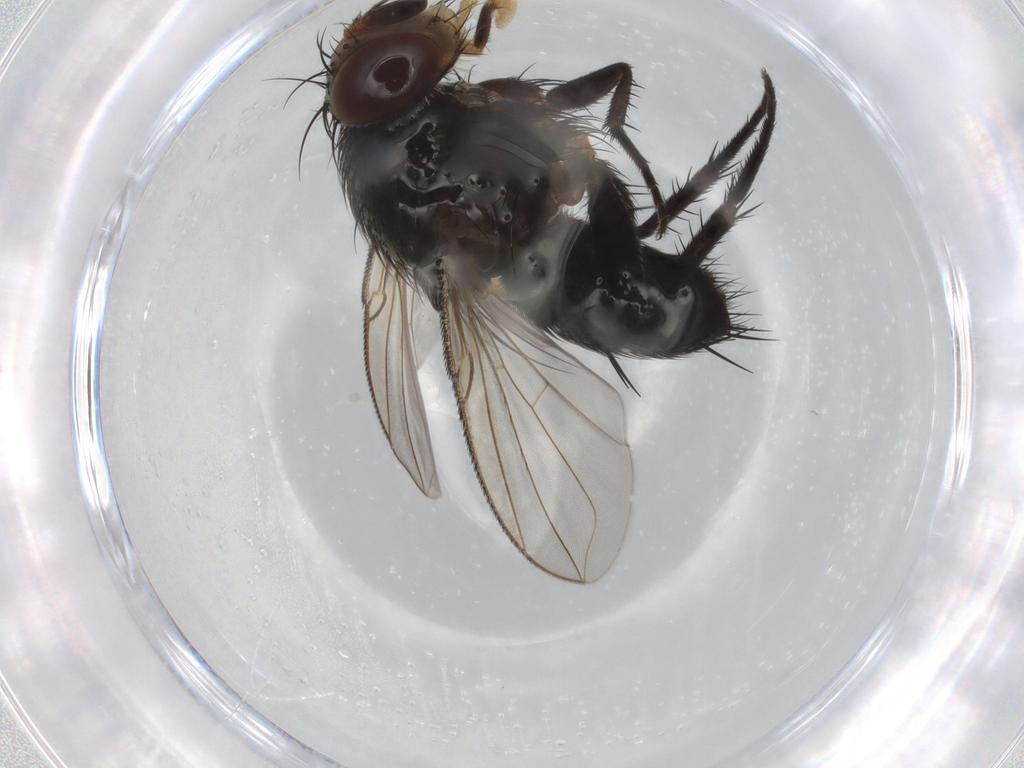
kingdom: Animalia
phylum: Arthropoda
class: Insecta
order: Diptera
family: Tachinidae
